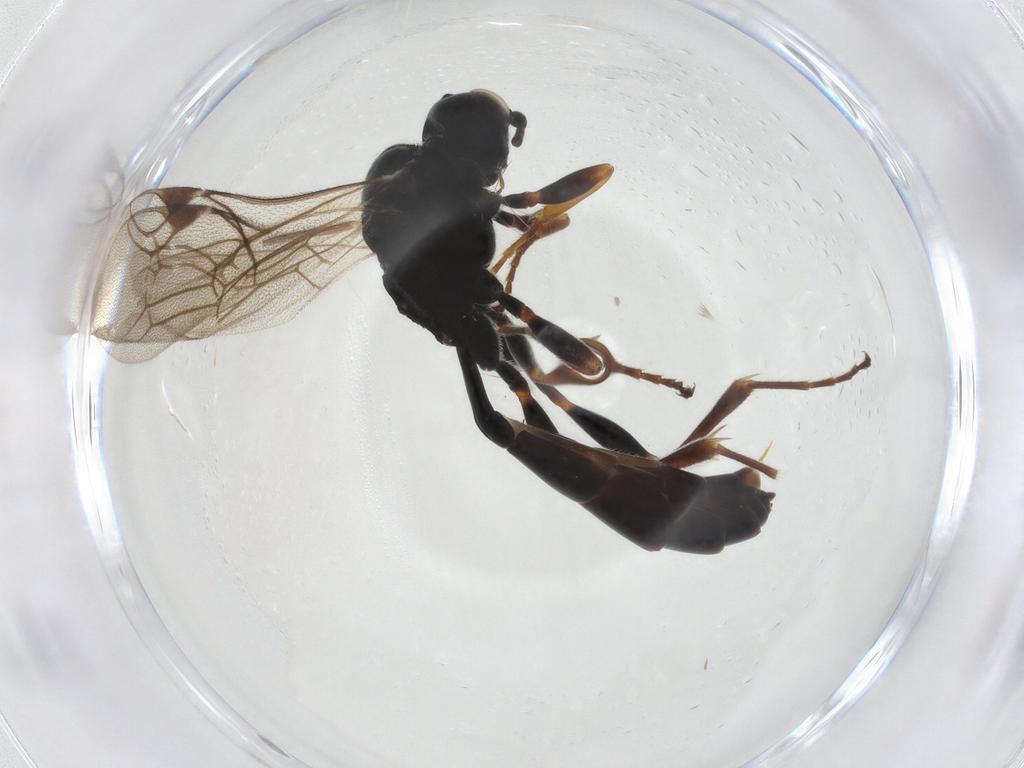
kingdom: Animalia
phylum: Arthropoda
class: Insecta
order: Hymenoptera
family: Ichneumonidae
